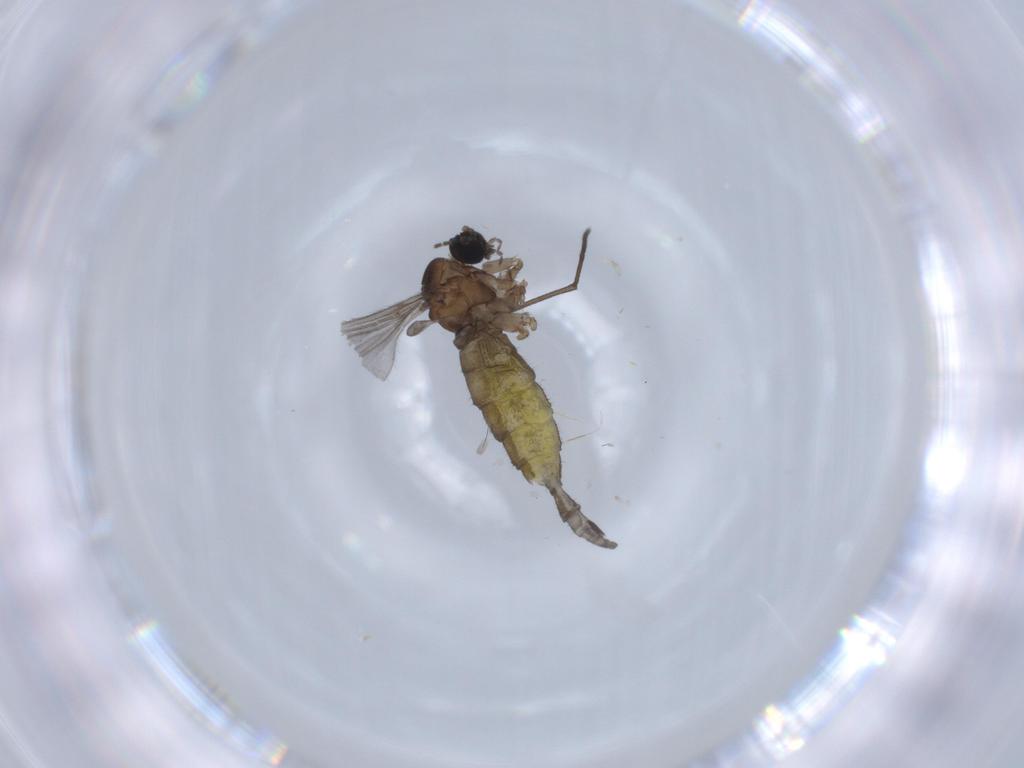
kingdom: Animalia
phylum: Arthropoda
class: Insecta
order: Diptera
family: Sciaridae
